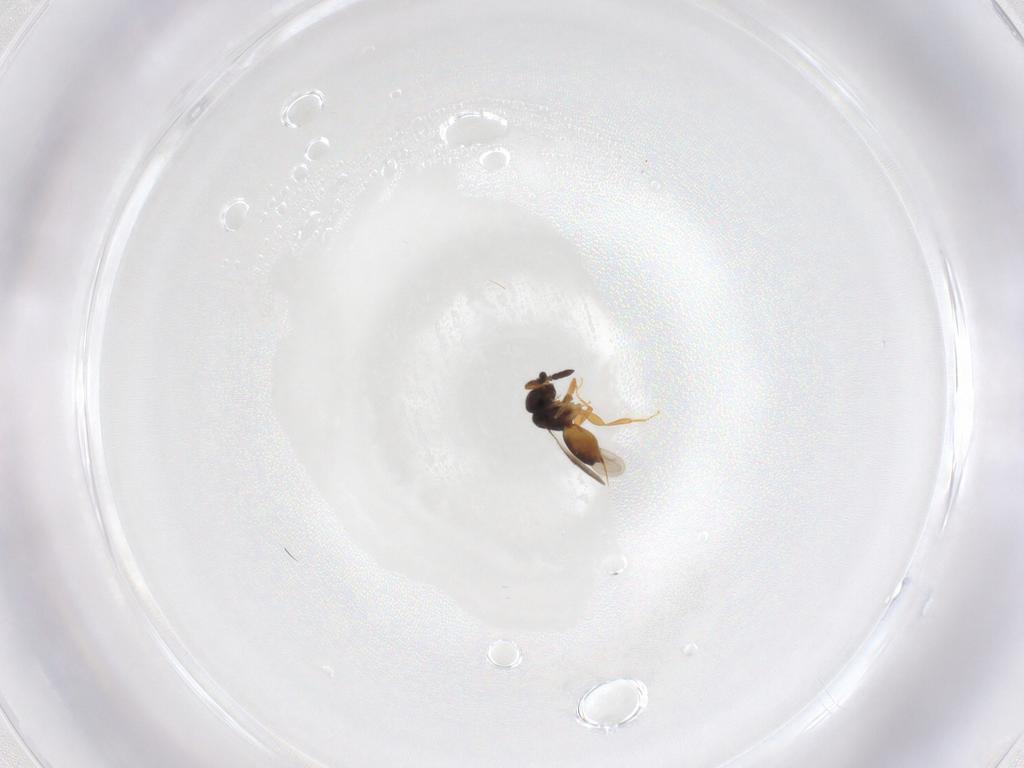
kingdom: Animalia
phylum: Arthropoda
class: Insecta
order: Hymenoptera
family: Ceraphronidae
